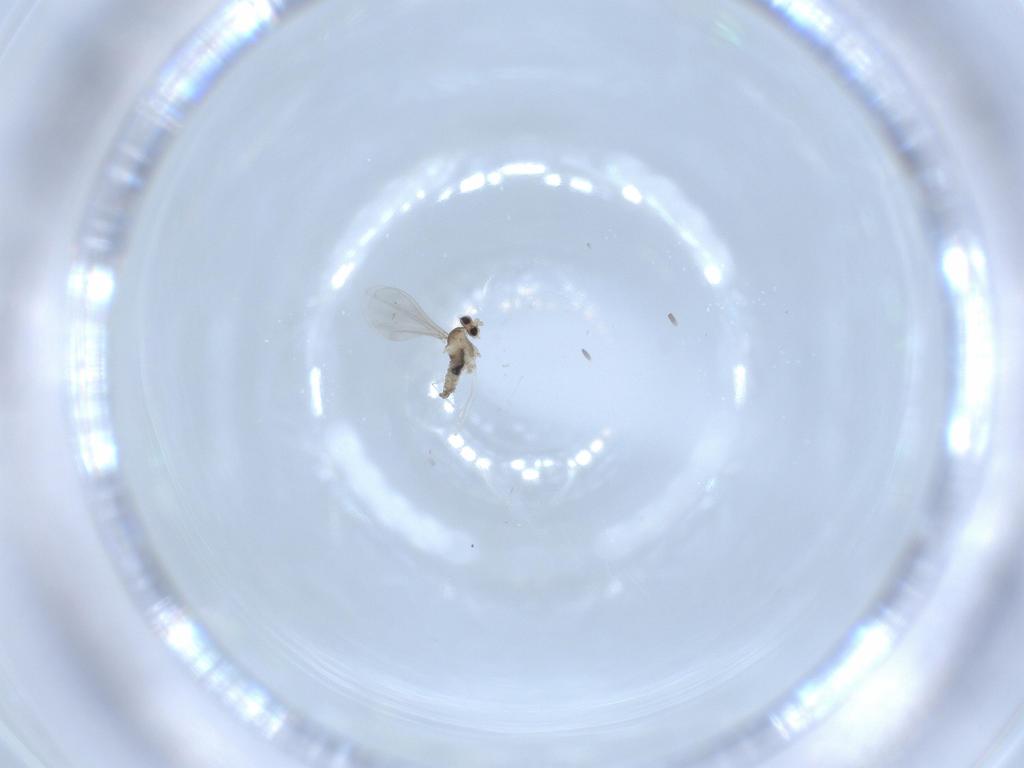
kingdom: Animalia
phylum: Arthropoda
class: Insecta
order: Diptera
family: Cecidomyiidae
